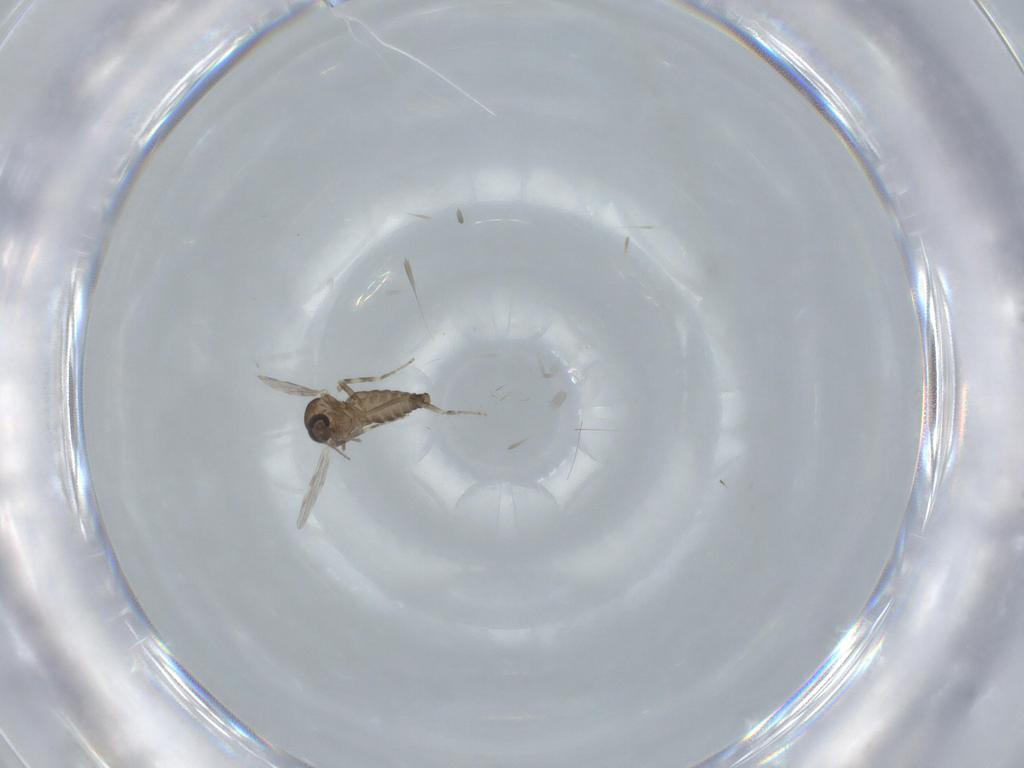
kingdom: Animalia
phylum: Arthropoda
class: Insecta
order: Diptera
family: Ceratopogonidae
